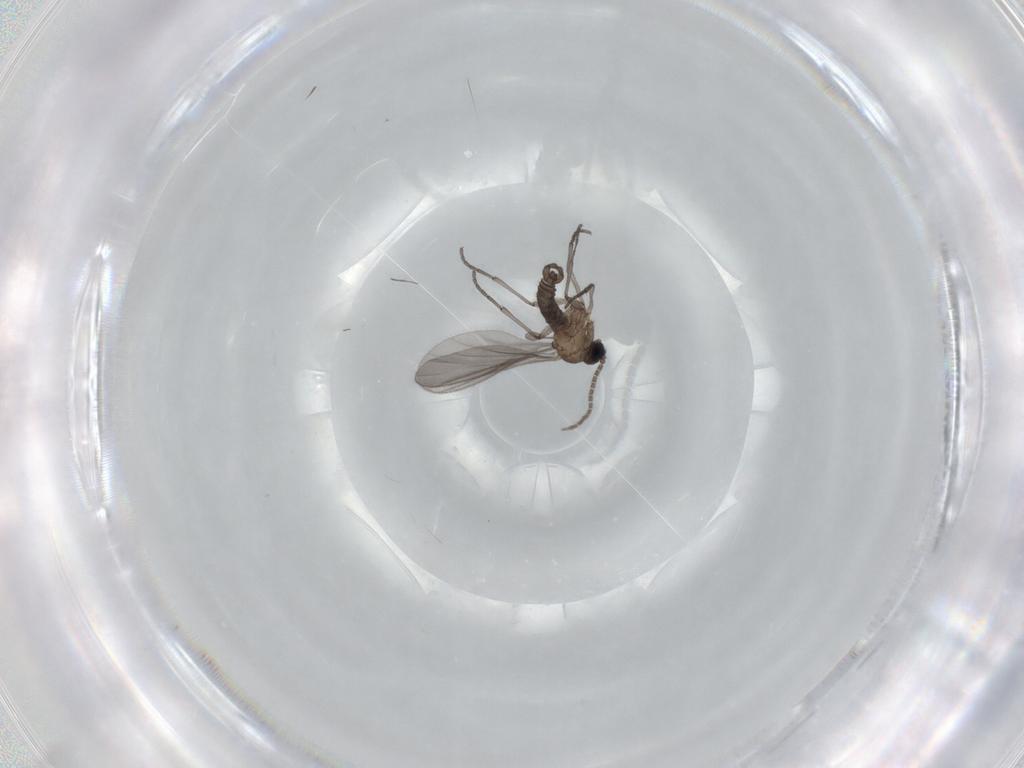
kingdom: Animalia
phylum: Arthropoda
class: Insecta
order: Diptera
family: Sciaridae
